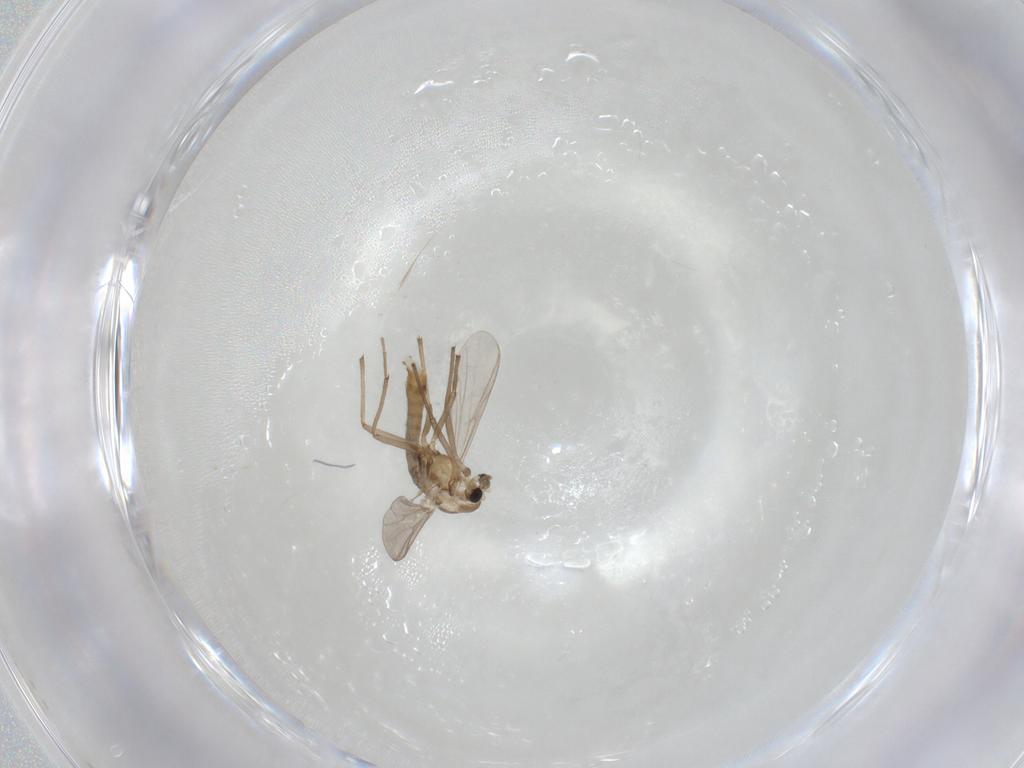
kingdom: Animalia
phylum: Arthropoda
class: Insecta
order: Diptera
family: Chironomidae
